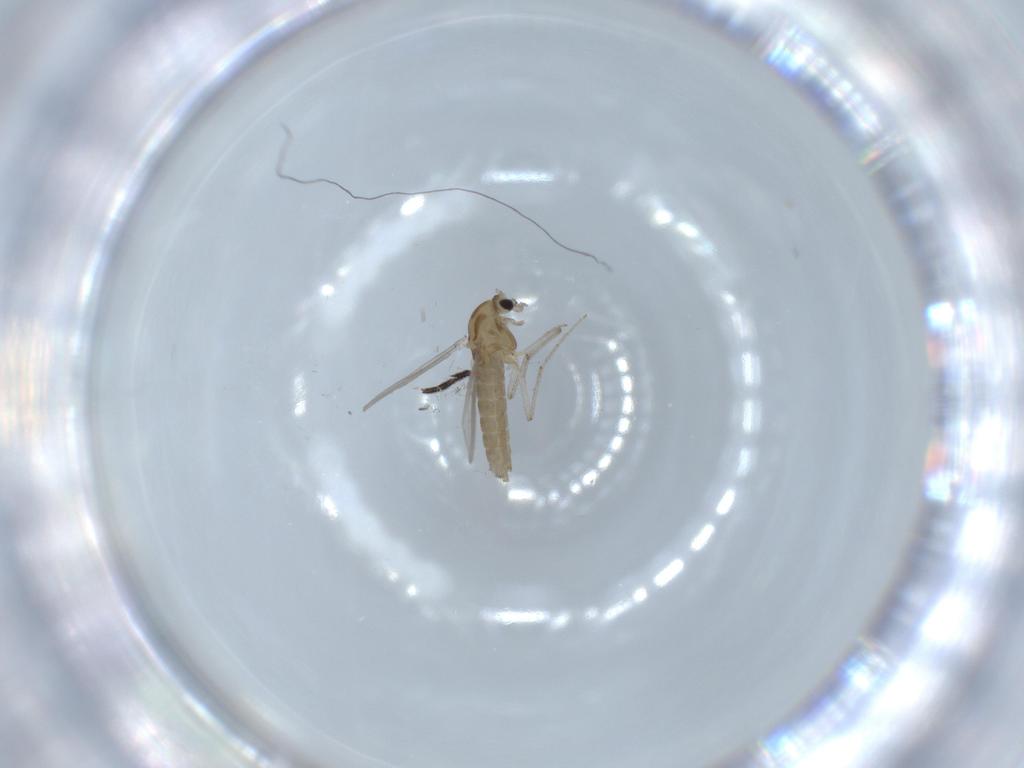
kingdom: Animalia
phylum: Arthropoda
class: Insecta
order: Diptera
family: Chironomidae
